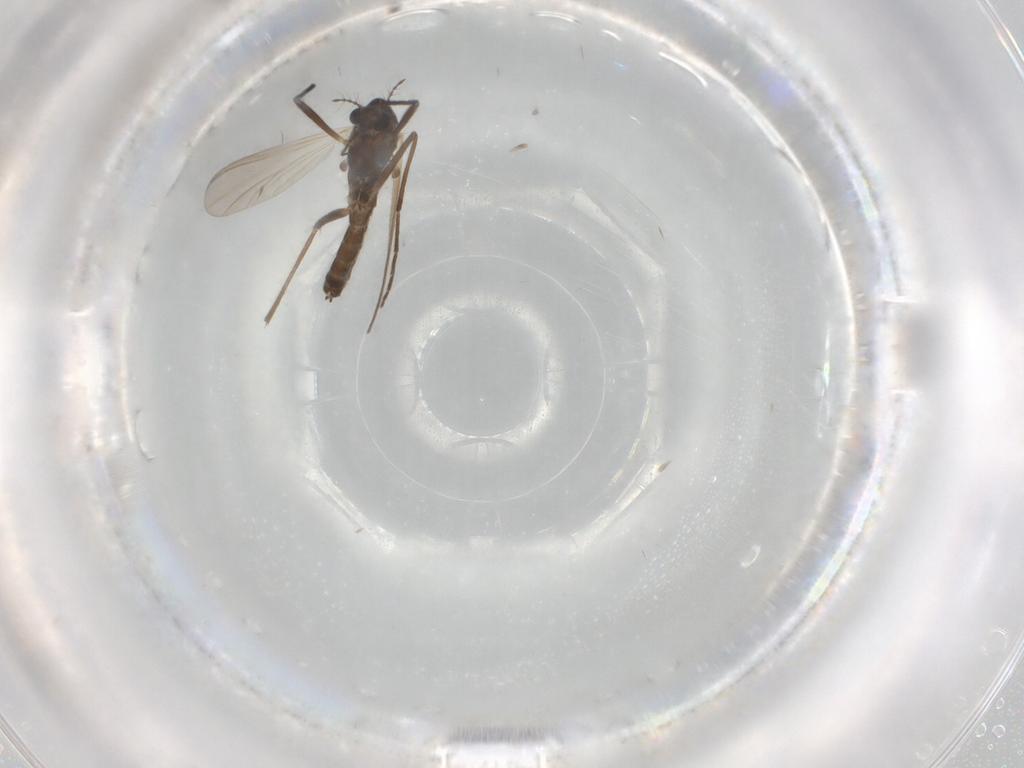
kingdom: Animalia
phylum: Arthropoda
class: Insecta
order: Diptera
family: Chironomidae
